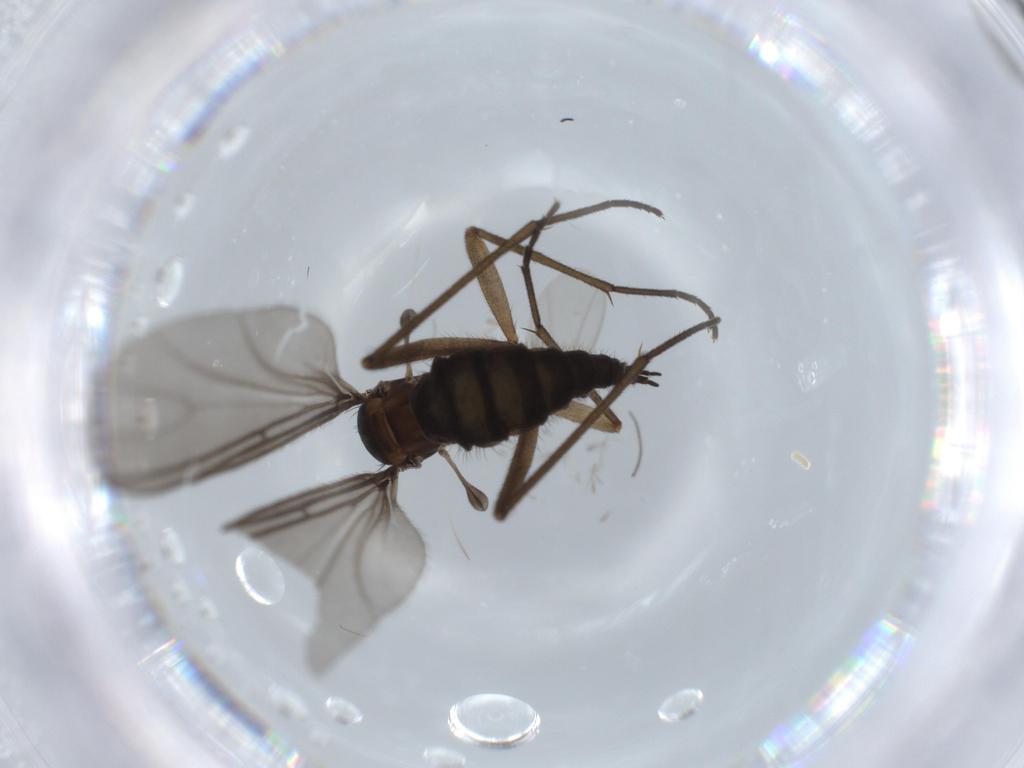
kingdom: Animalia
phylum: Arthropoda
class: Insecta
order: Diptera
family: Sciaridae
